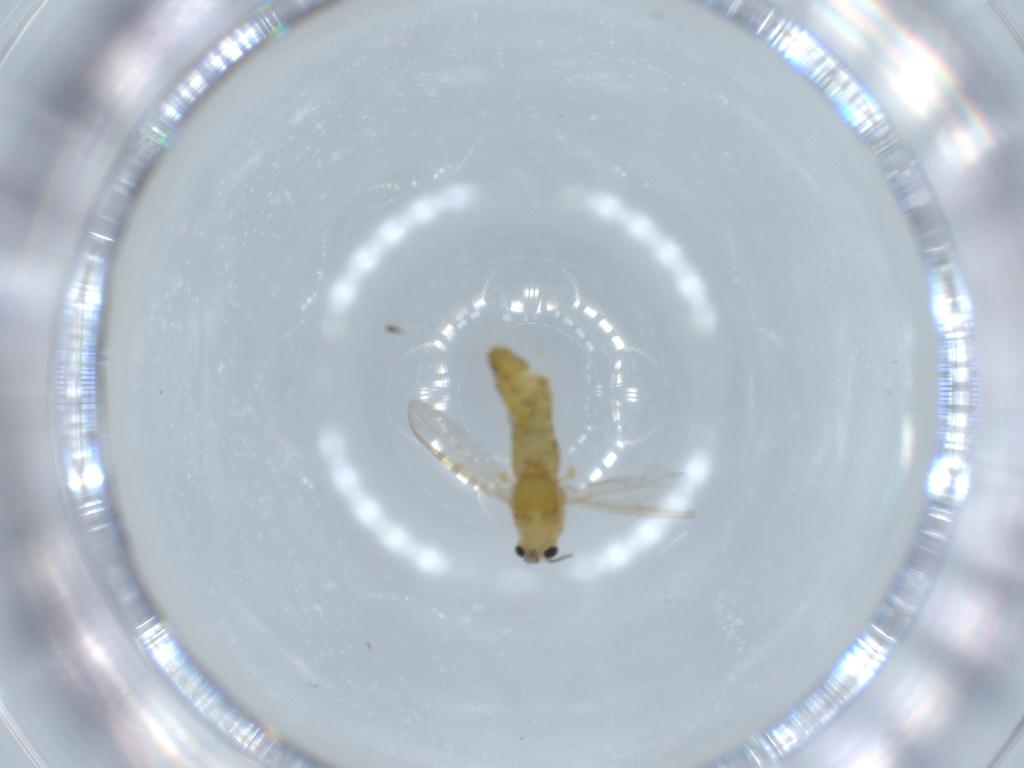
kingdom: Animalia
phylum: Arthropoda
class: Insecta
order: Diptera
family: Chironomidae
